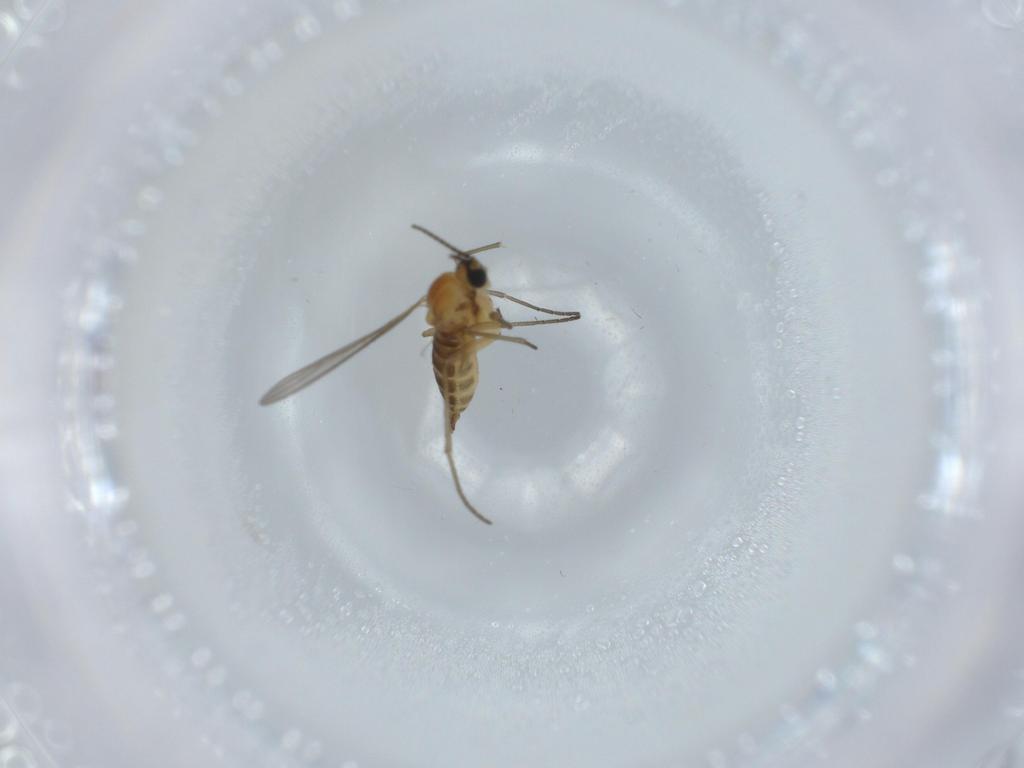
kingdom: Animalia
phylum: Arthropoda
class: Insecta
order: Diptera
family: Sciaridae
